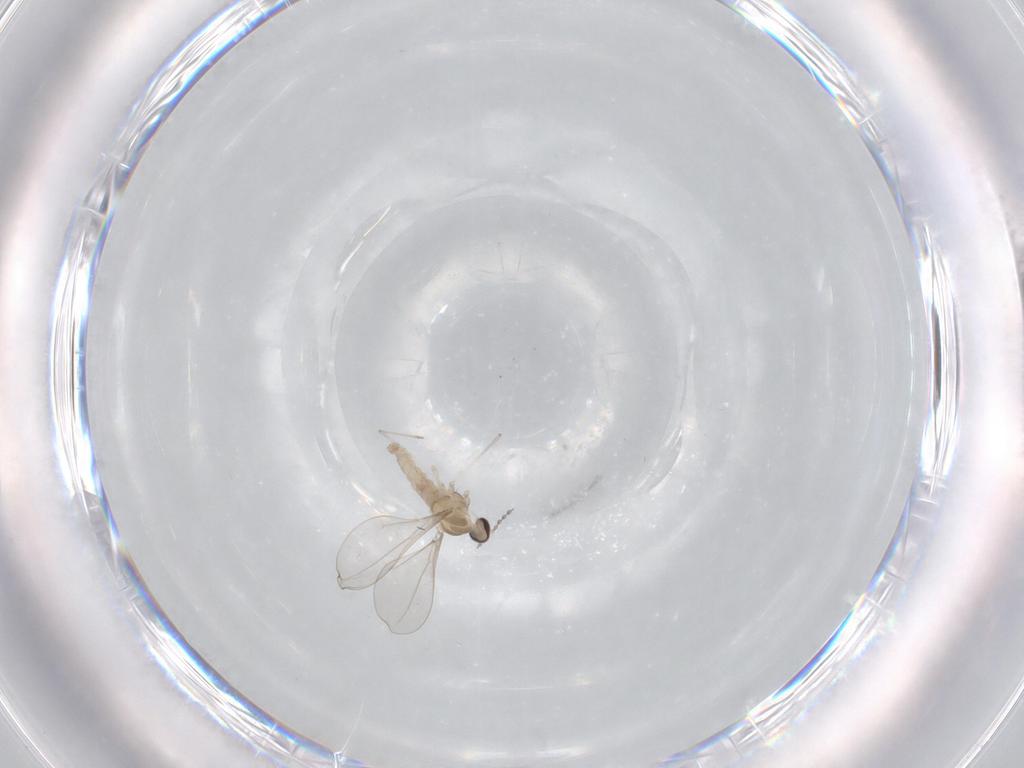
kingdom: Animalia
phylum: Arthropoda
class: Insecta
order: Diptera
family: Cecidomyiidae
